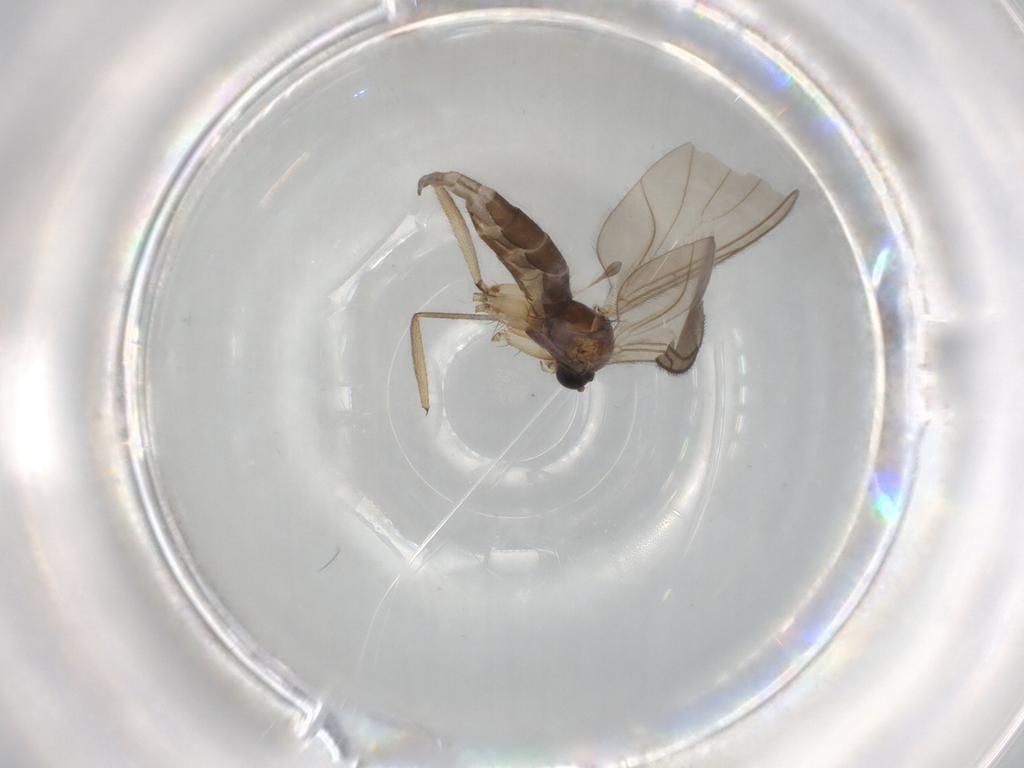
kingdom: Animalia
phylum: Arthropoda
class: Insecta
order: Diptera
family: Sciaridae
